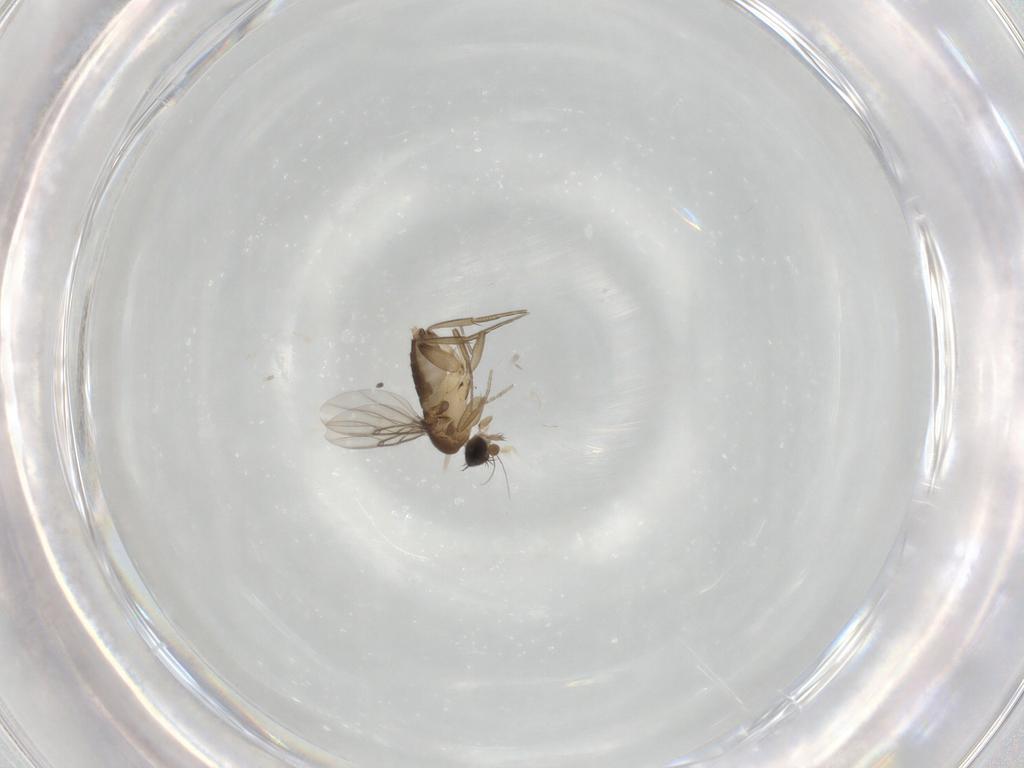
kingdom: Animalia
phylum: Arthropoda
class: Insecta
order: Diptera
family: Phoridae
